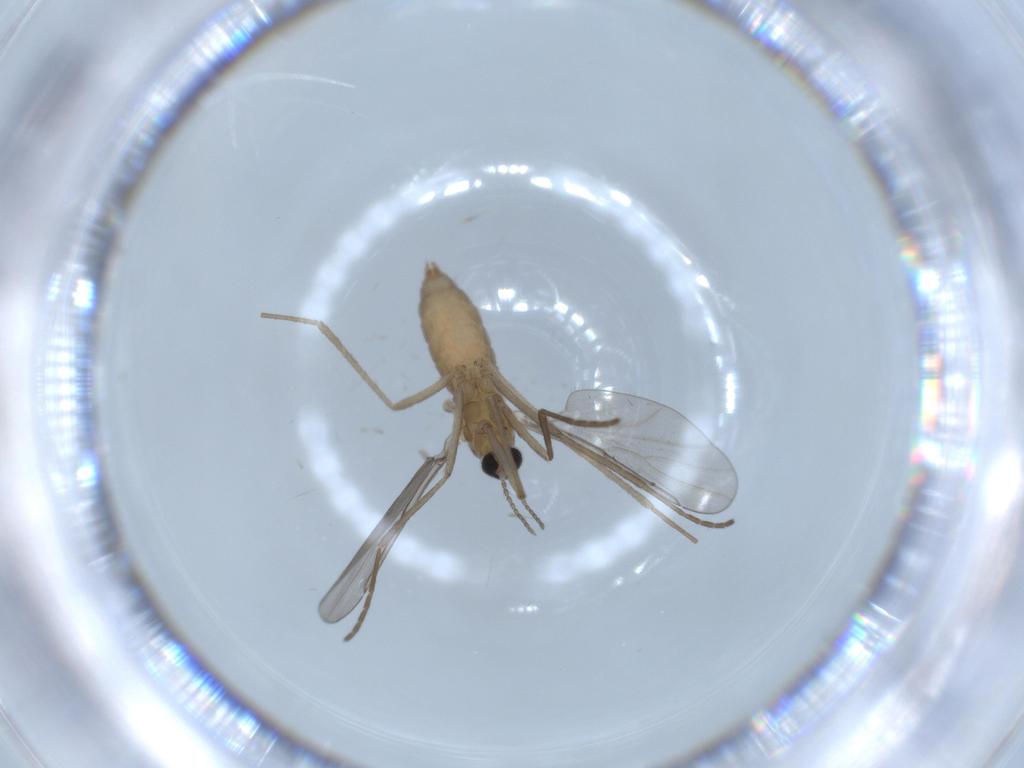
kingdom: Animalia
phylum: Arthropoda
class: Insecta
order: Diptera
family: Cecidomyiidae
